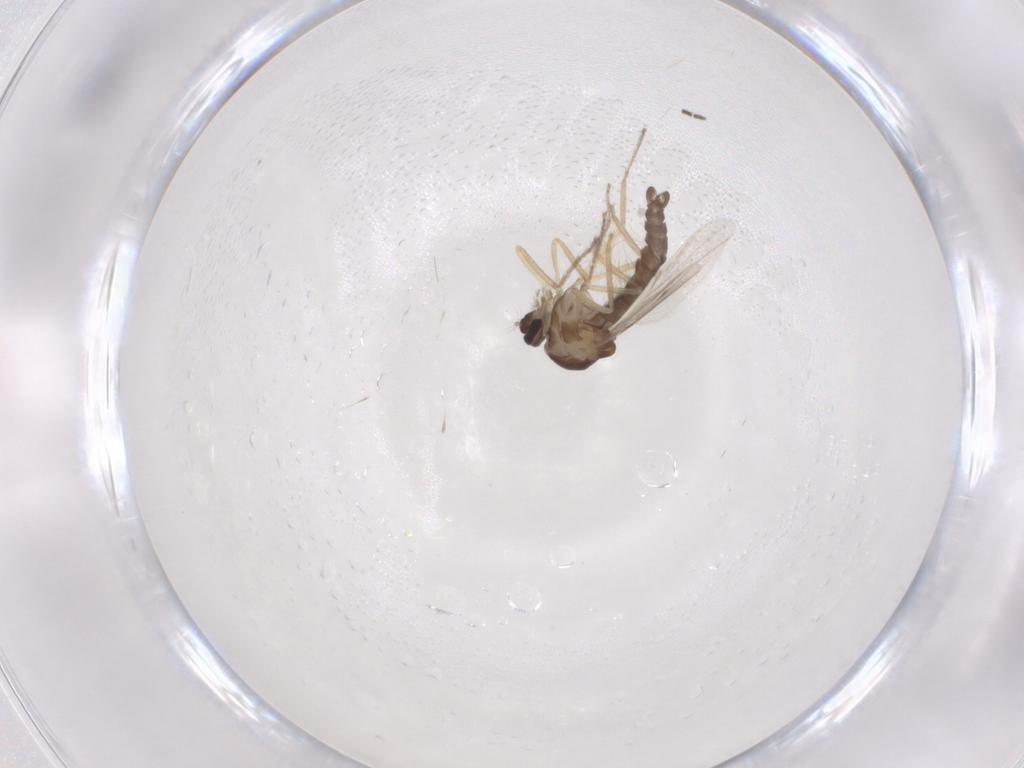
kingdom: Animalia
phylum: Arthropoda
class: Insecta
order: Diptera
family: Ceratopogonidae
